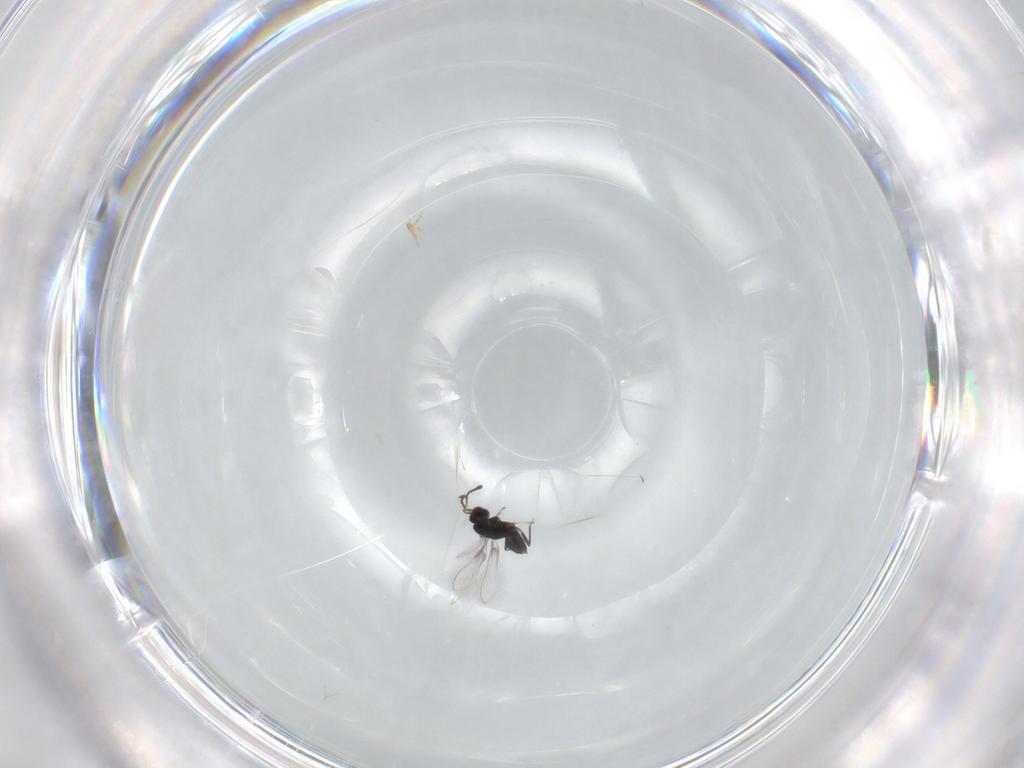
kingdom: Animalia
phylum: Arthropoda
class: Insecta
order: Hymenoptera
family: Mymaridae
